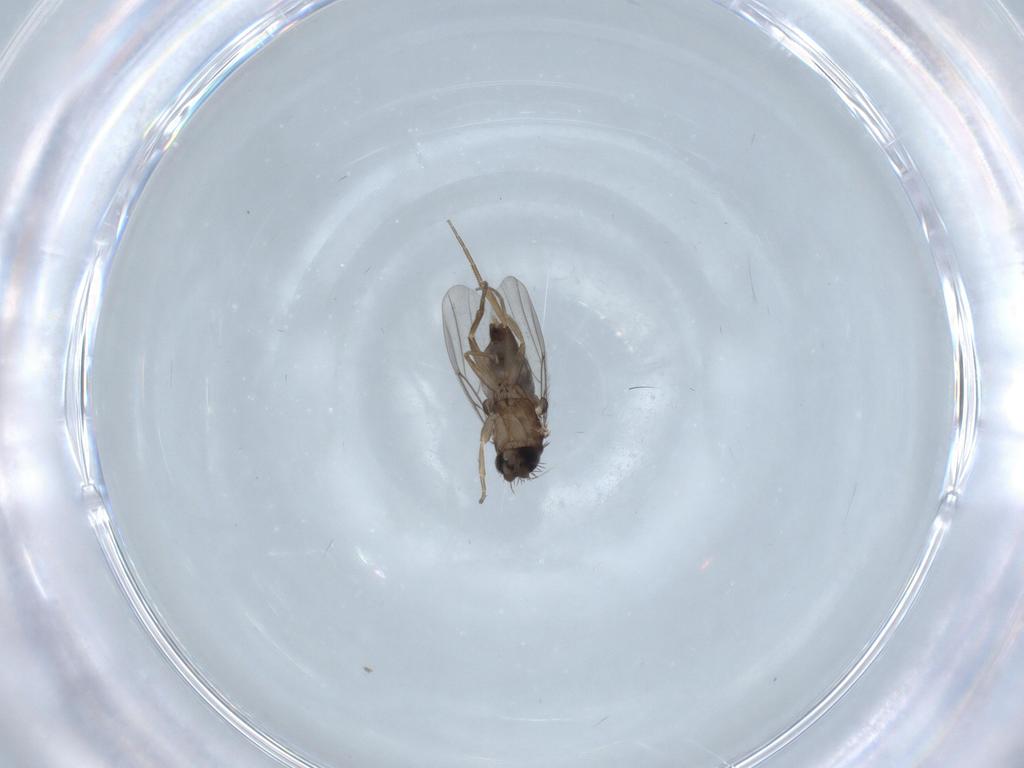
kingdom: Animalia
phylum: Arthropoda
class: Insecta
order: Diptera
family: Phoridae
